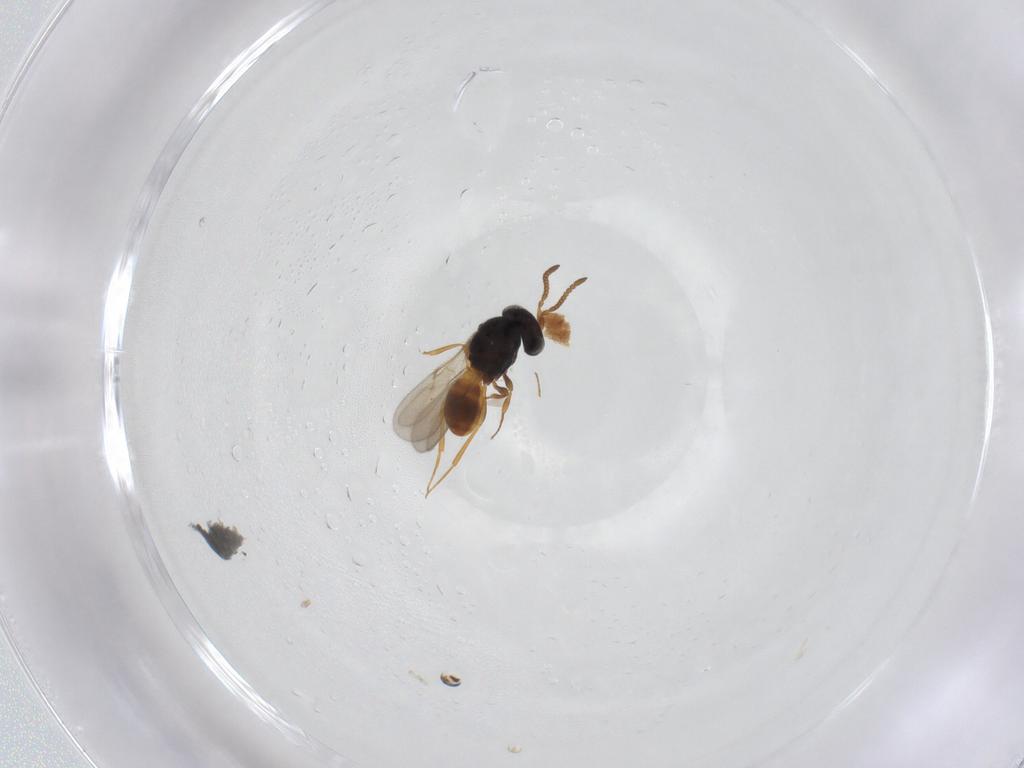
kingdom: Animalia
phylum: Arthropoda
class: Insecta
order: Hymenoptera
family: Scelionidae
